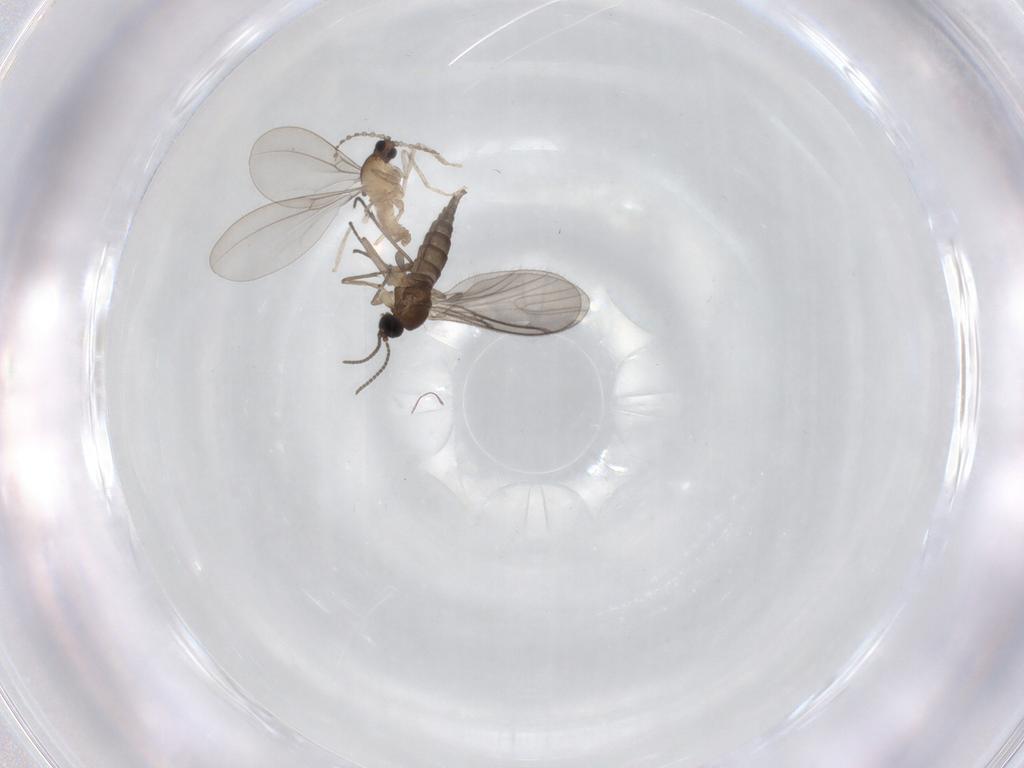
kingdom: Animalia
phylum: Arthropoda
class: Insecta
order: Diptera
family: Cecidomyiidae
